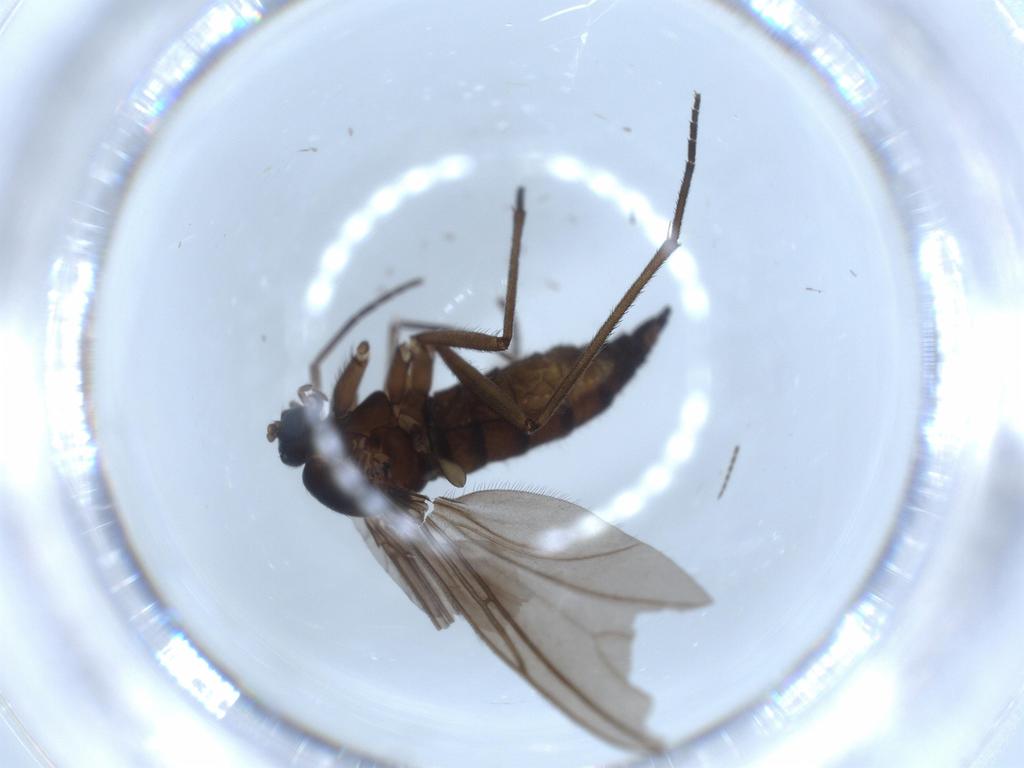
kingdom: Animalia
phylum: Arthropoda
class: Insecta
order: Diptera
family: Sciaridae
